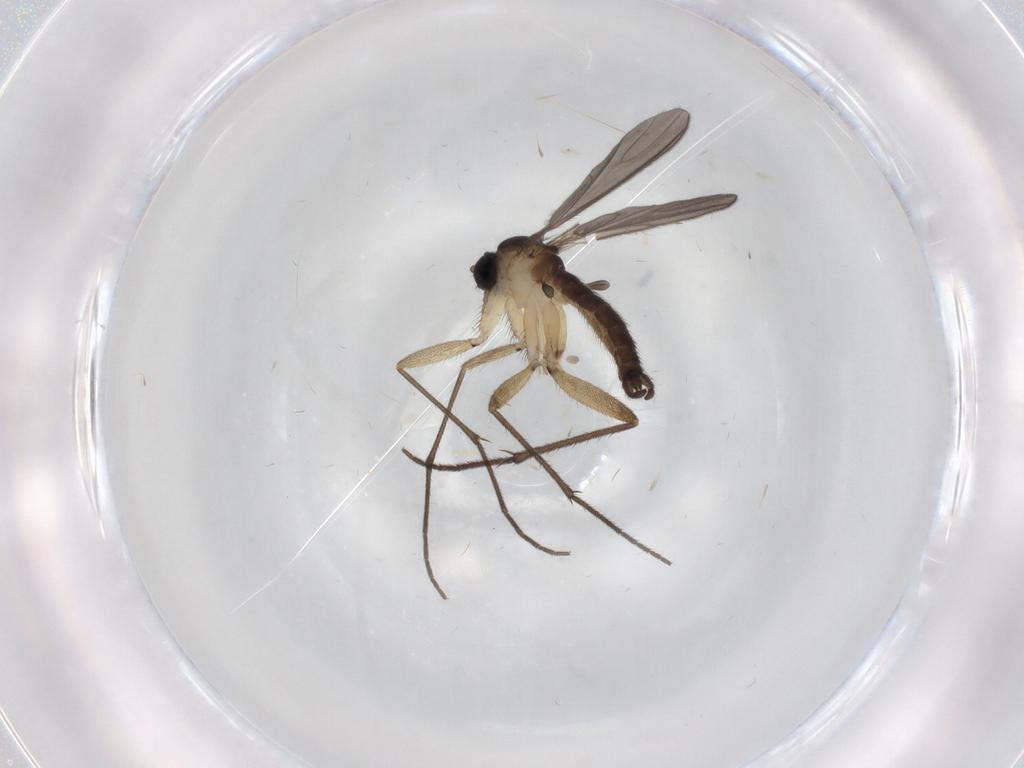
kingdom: Animalia
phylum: Arthropoda
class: Insecta
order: Diptera
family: Sciaridae
